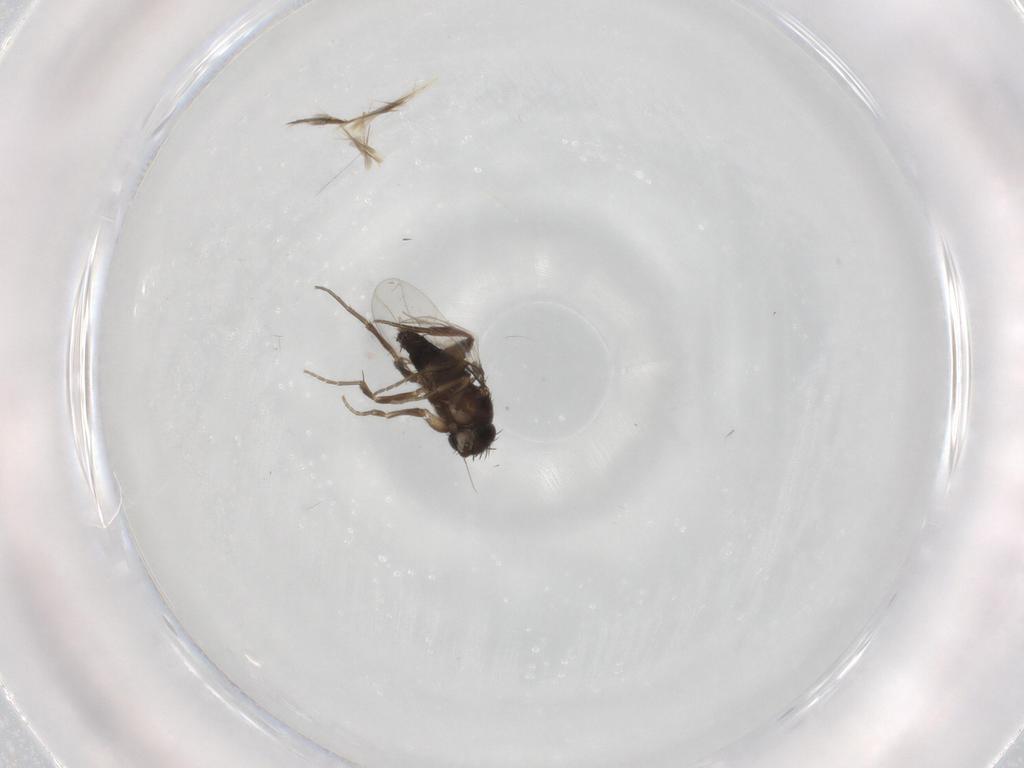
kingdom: Animalia
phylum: Arthropoda
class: Insecta
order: Diptera
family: Phoridae
